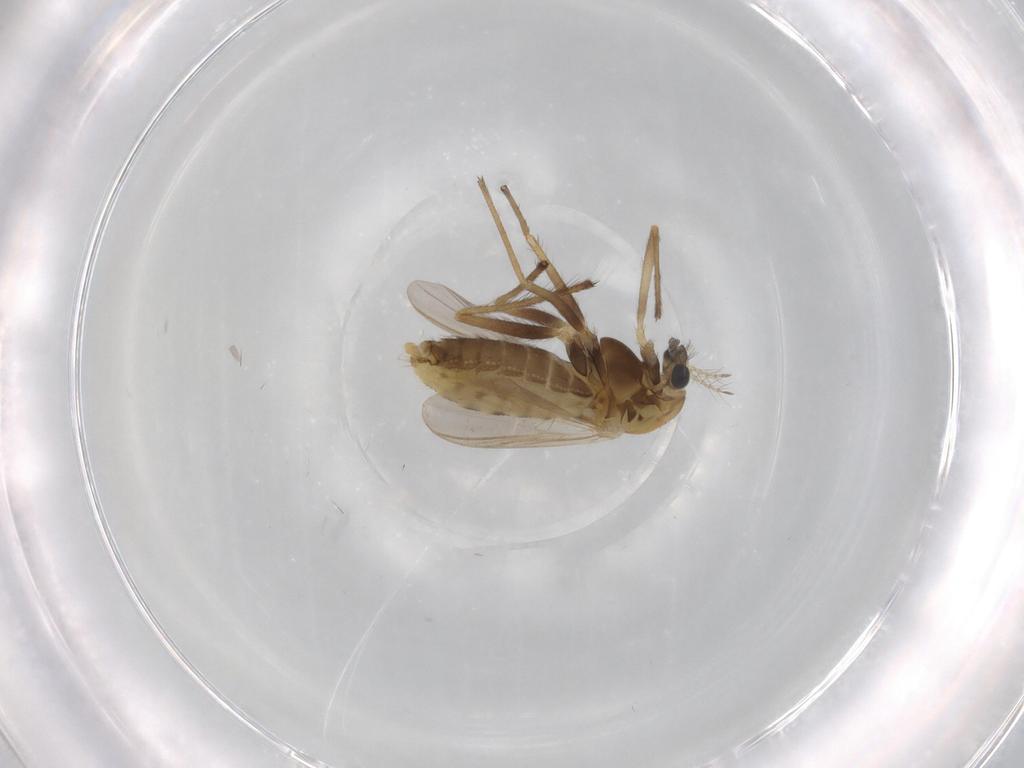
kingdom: Animalia
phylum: Arthropoda
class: Insecta
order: Diptera
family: Chironomidae
